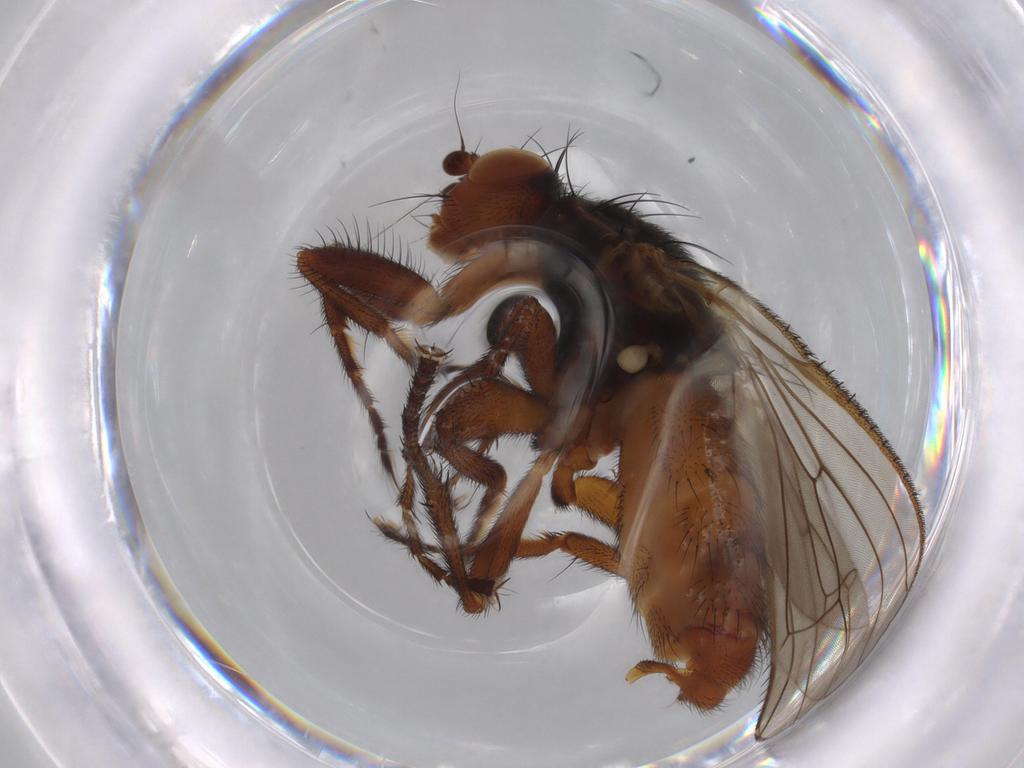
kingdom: Animalia
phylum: Arthropoda
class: Insecta
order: Diptera
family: Heleomyzidae
